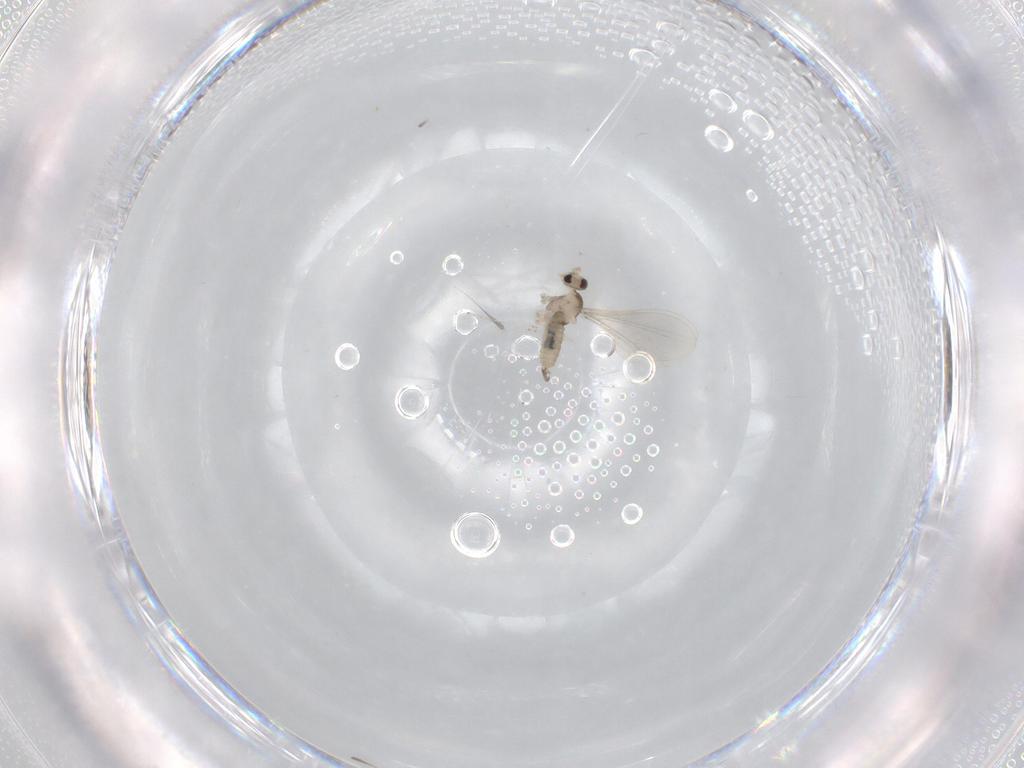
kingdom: Animalia
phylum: Arthropoda
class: Insecta
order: Diptera
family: Cecidomyiidae
